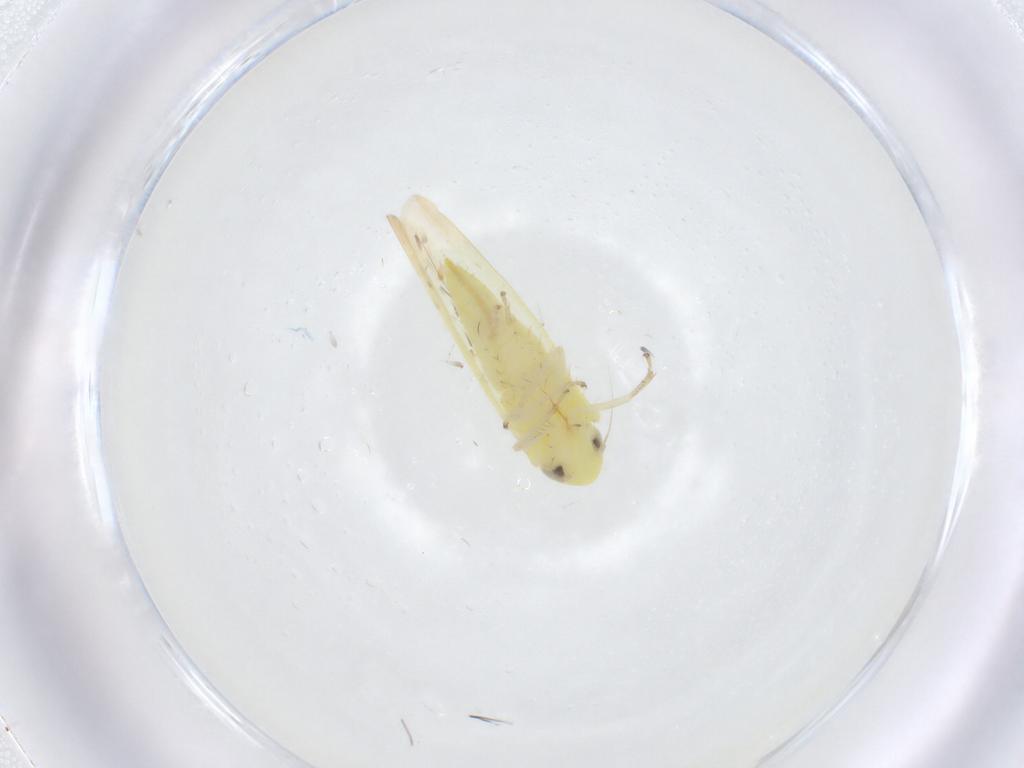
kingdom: Animalia
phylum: Arthropoda
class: Insecta
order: Hemiptera
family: Cicadellidae
